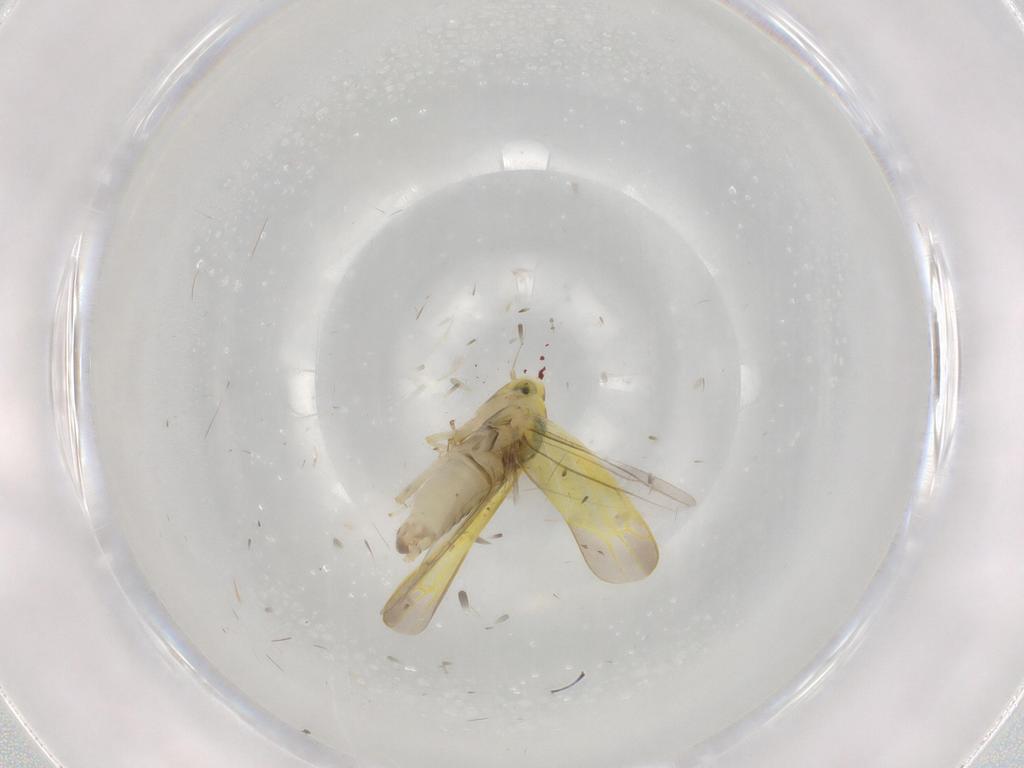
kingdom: Animalia
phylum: Arthropoda
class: Insecta
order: Hemiptera
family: Cicadellidae
